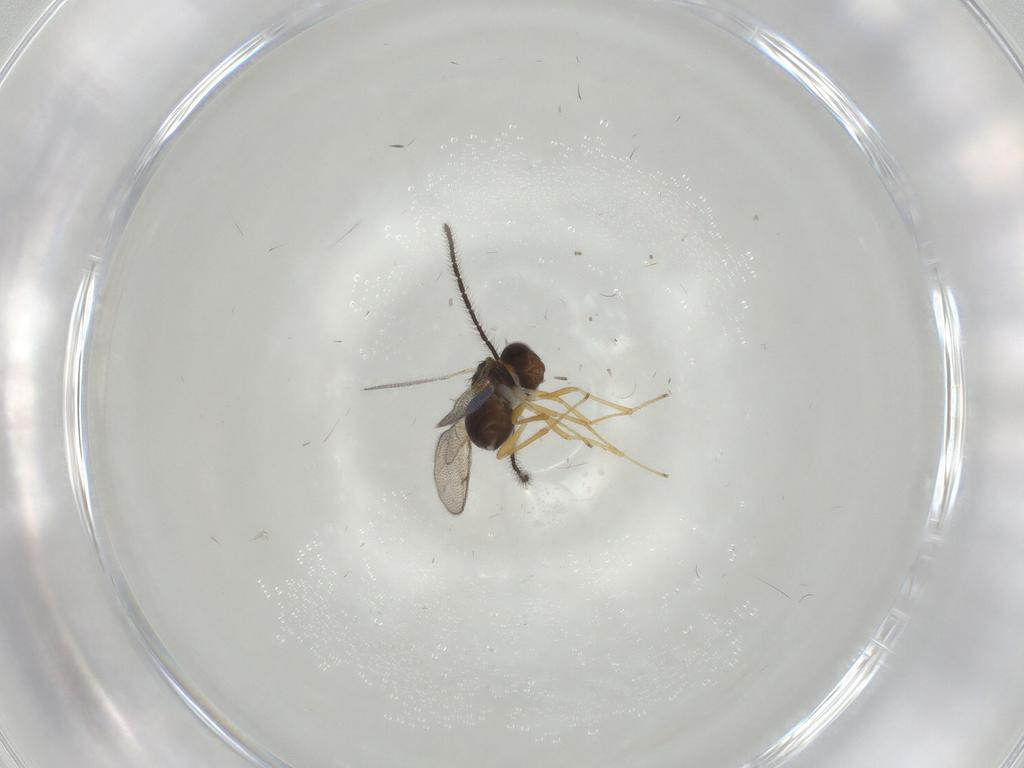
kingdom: Animalia
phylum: Arthropoda
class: Insecta
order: Hymenoptera
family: Diparidae
